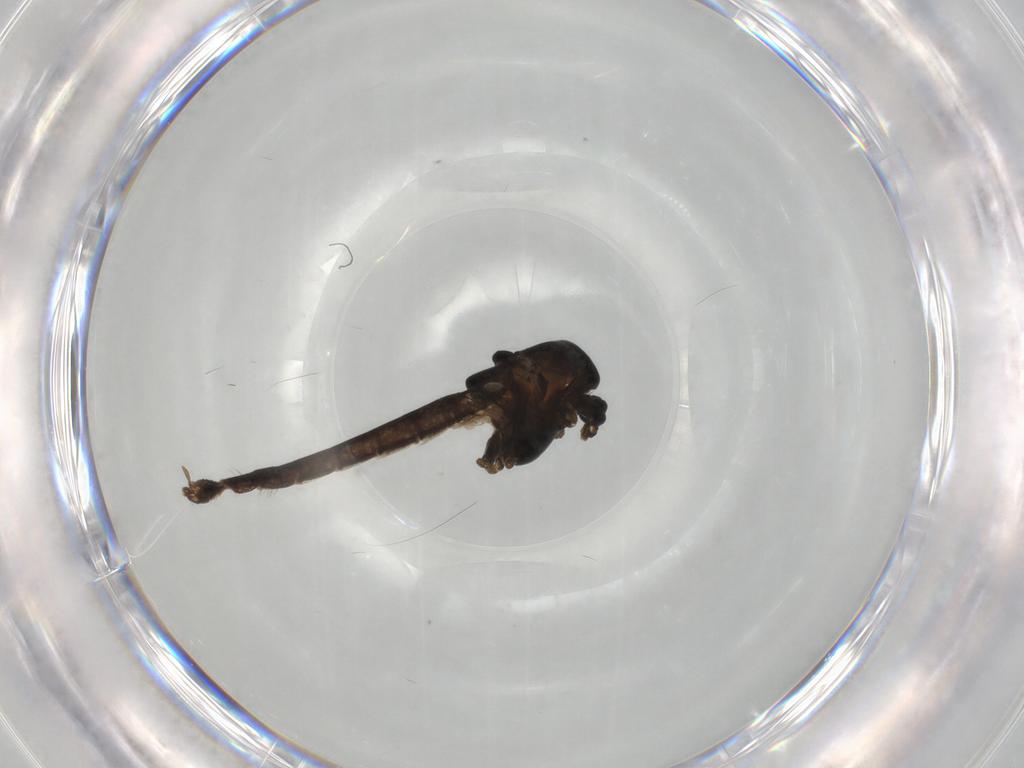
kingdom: Animalia
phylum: Arthropoda
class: Insecta
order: Diptera
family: Chironomidae
